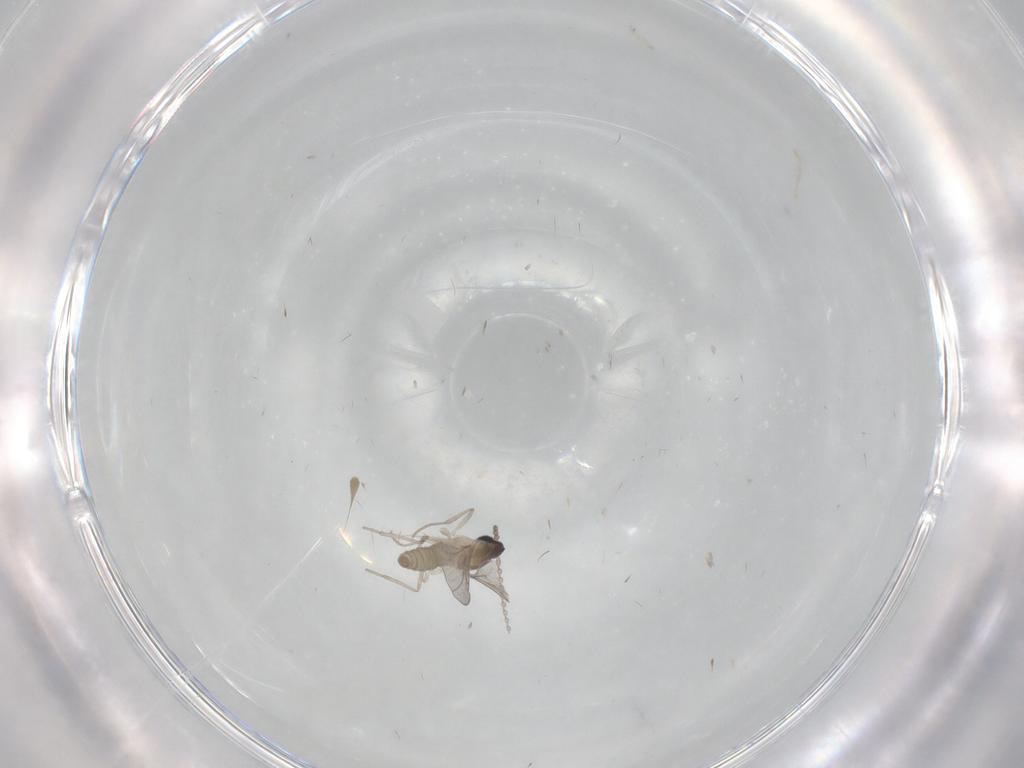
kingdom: Animalia
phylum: Arthropoda
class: Insecta
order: Diptera
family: Cecidomyiidae
